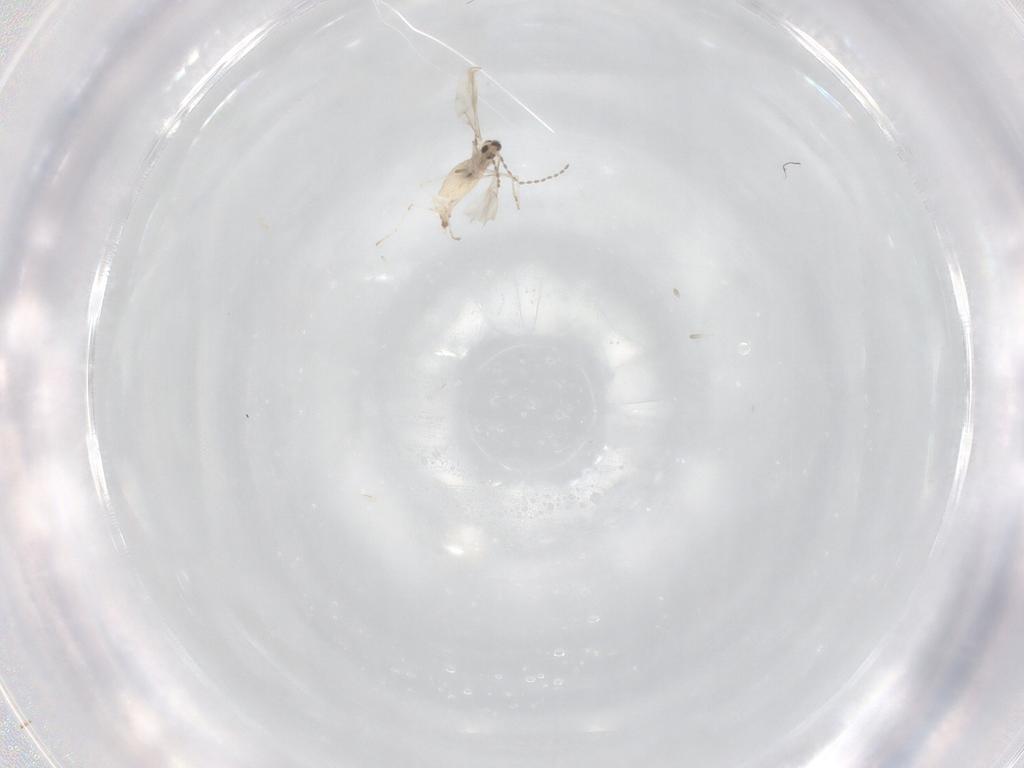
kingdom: Animalia
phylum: Arthropoda
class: Insecta
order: Diptera
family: Cecidomyiidae
